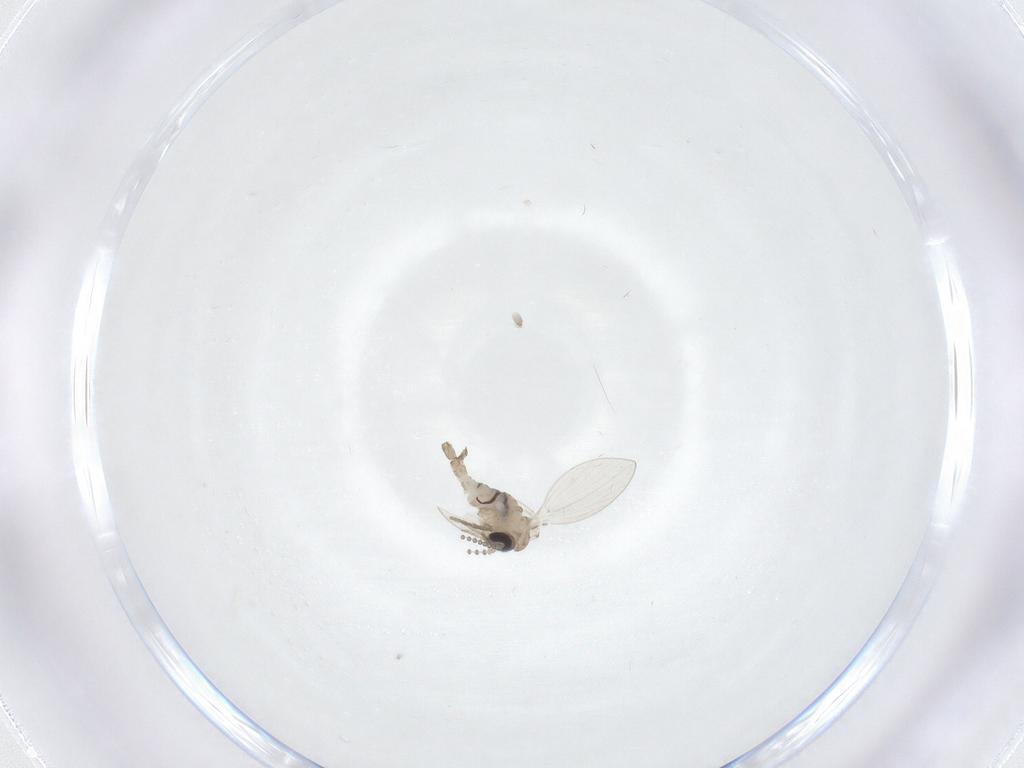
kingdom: Animalia
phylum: Arthropoda
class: Insecta
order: Diptera
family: Psychodidae
